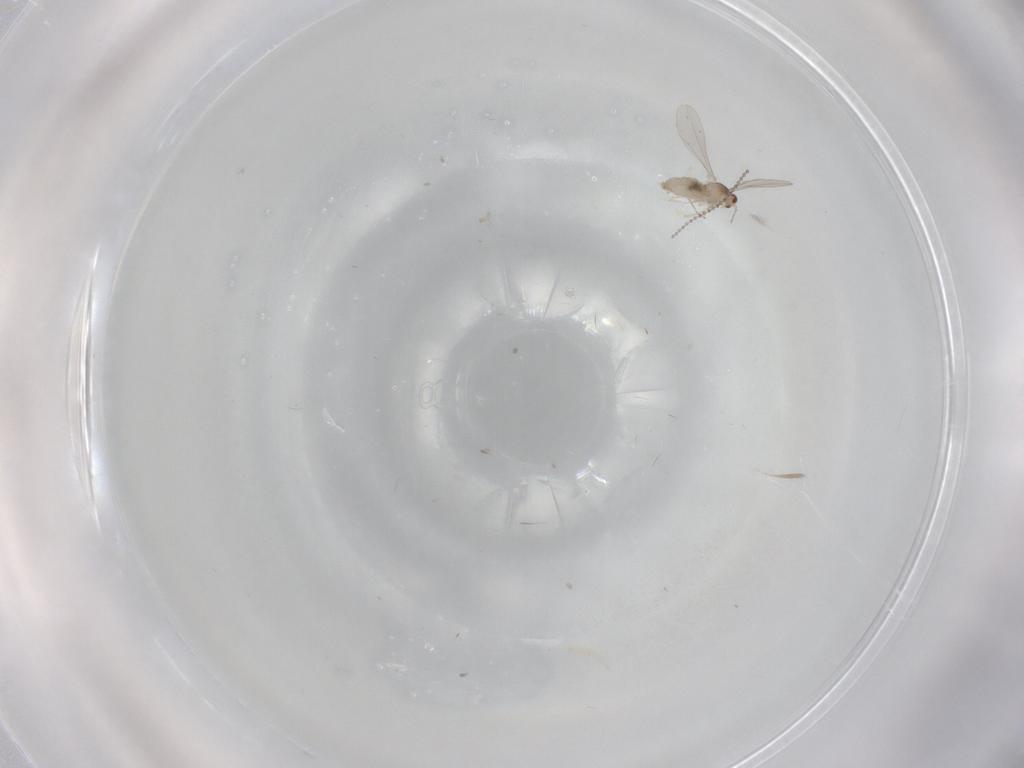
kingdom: Animalia
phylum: Arthropoda
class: Insecta
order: Diptera
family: Cecidomyiidae
